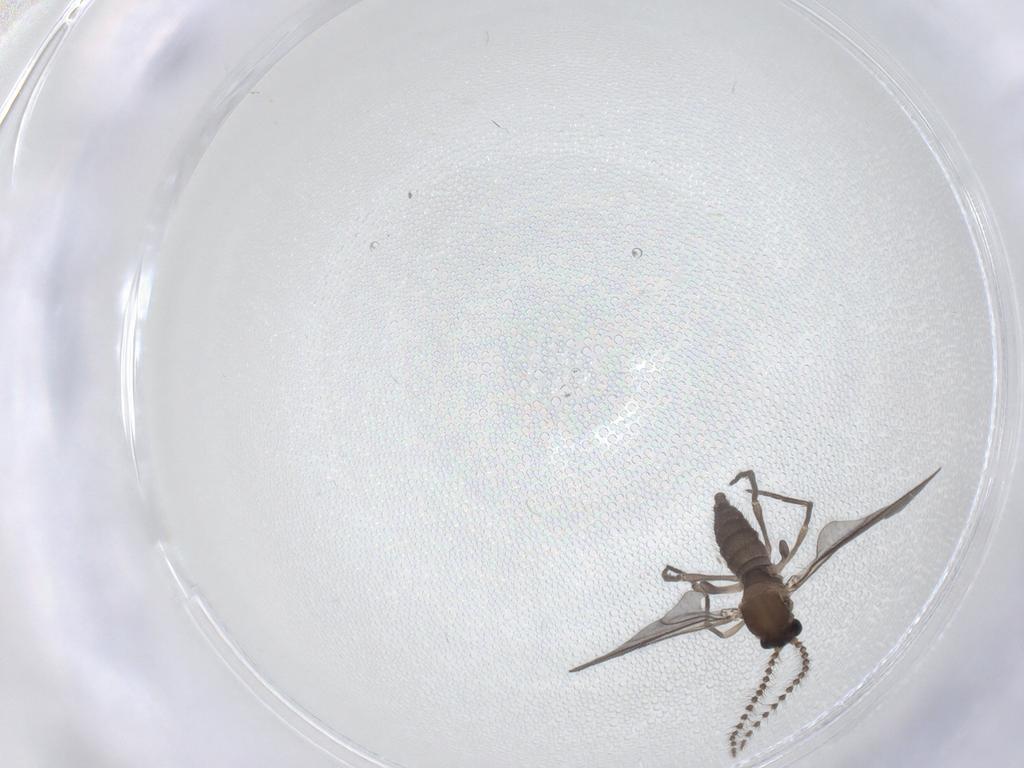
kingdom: Animalia
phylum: Arthropoda
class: Insecta
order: Diptera
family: Sciaridae
